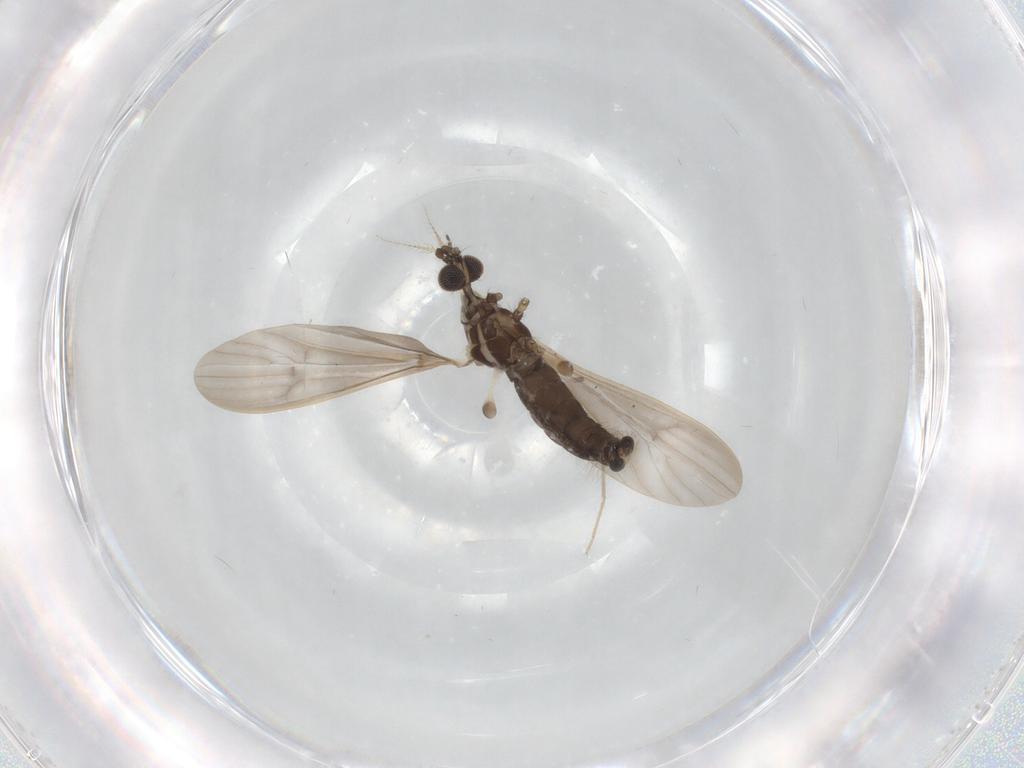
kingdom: Animalia
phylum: Arthropoda
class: Insecta
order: Diptera
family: Limoniidae
